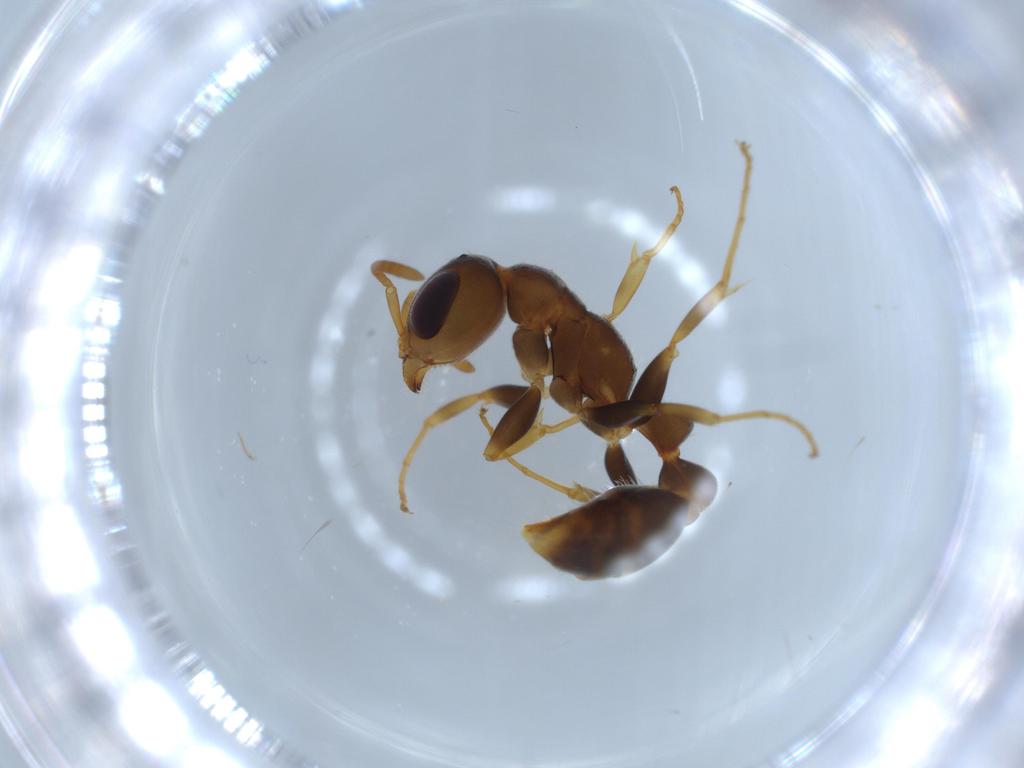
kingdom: Animalia
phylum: Arthropoda
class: Insecta
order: Hymenoptera
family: Formicidae
